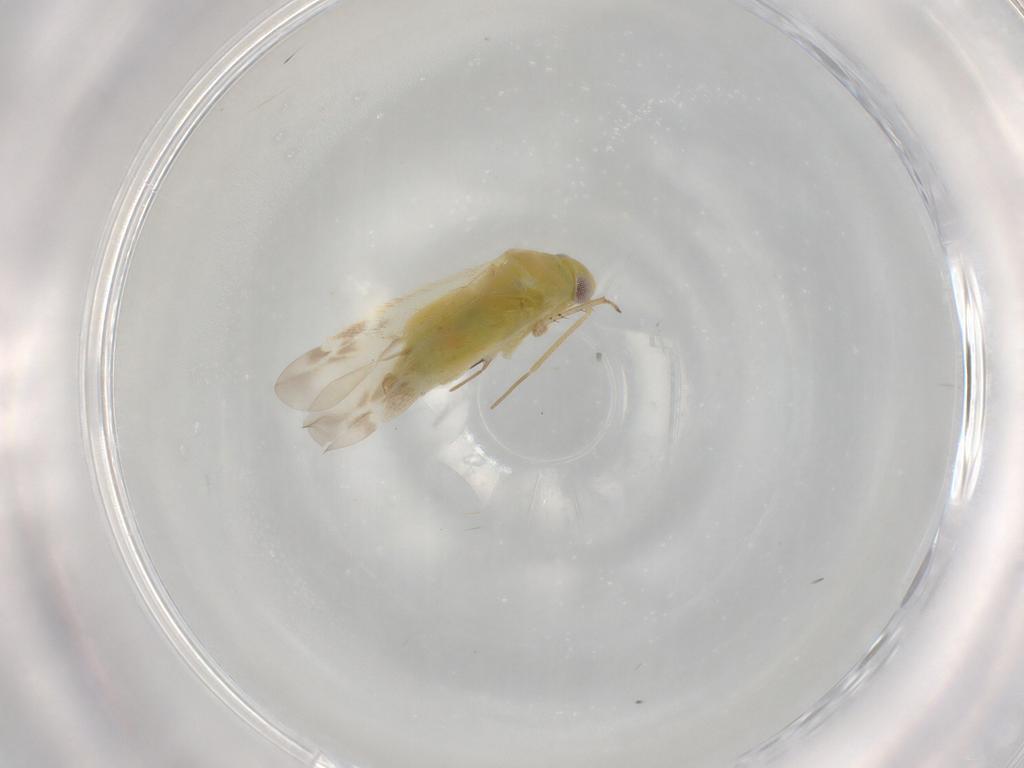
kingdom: Animalia
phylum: Arthropoda
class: Insecta
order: Hemiptera
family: Miridae
